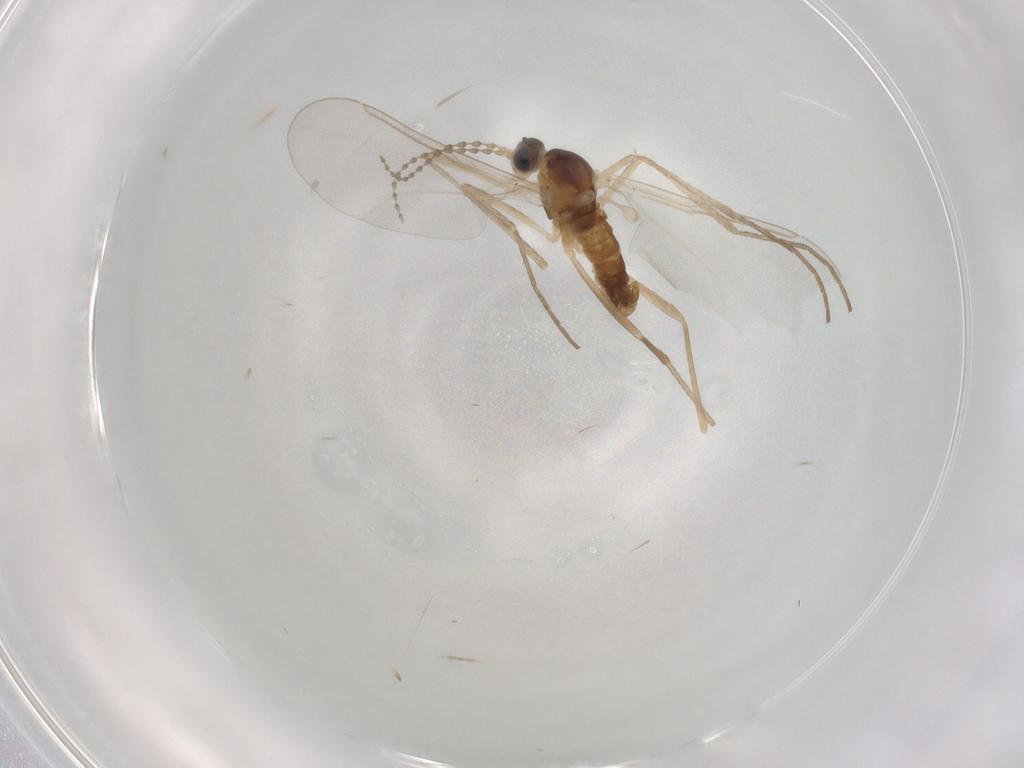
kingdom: Animalia
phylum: Arthropoda
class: Insecta
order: Diptera
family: Cecidomyiidae
